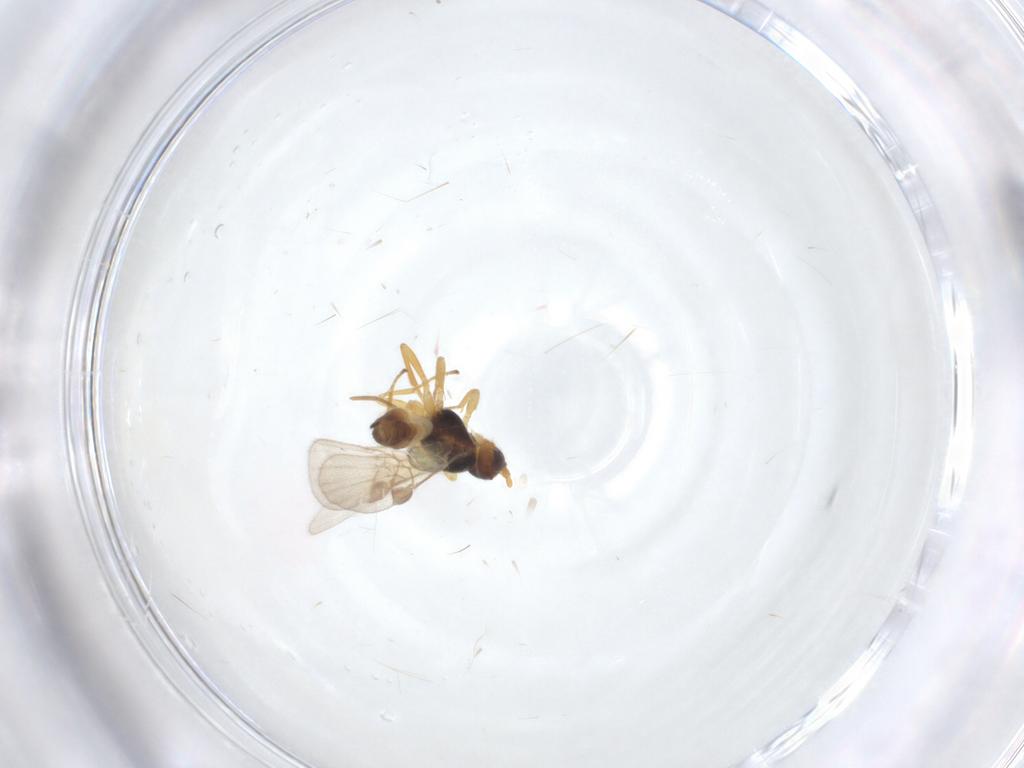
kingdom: Animalia
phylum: Arthropoda
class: Insecta
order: Hymenoptera
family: Braconidae
